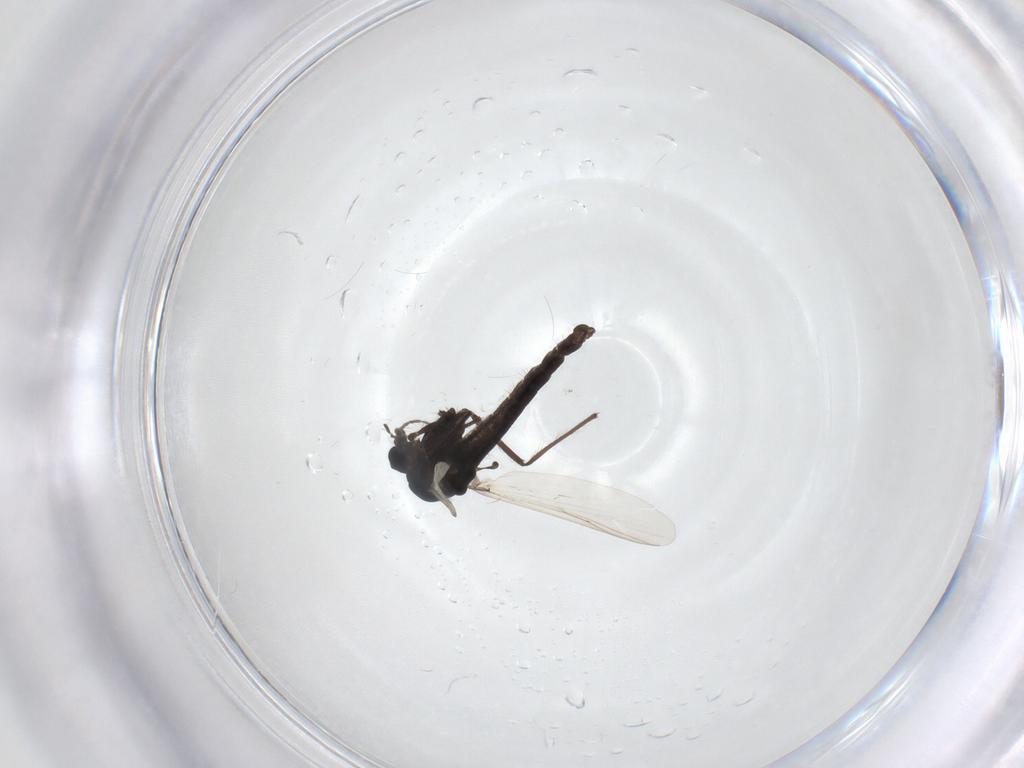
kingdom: Animalia
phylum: Arthropoda
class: Insecta
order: Diptera
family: Chironomidae
